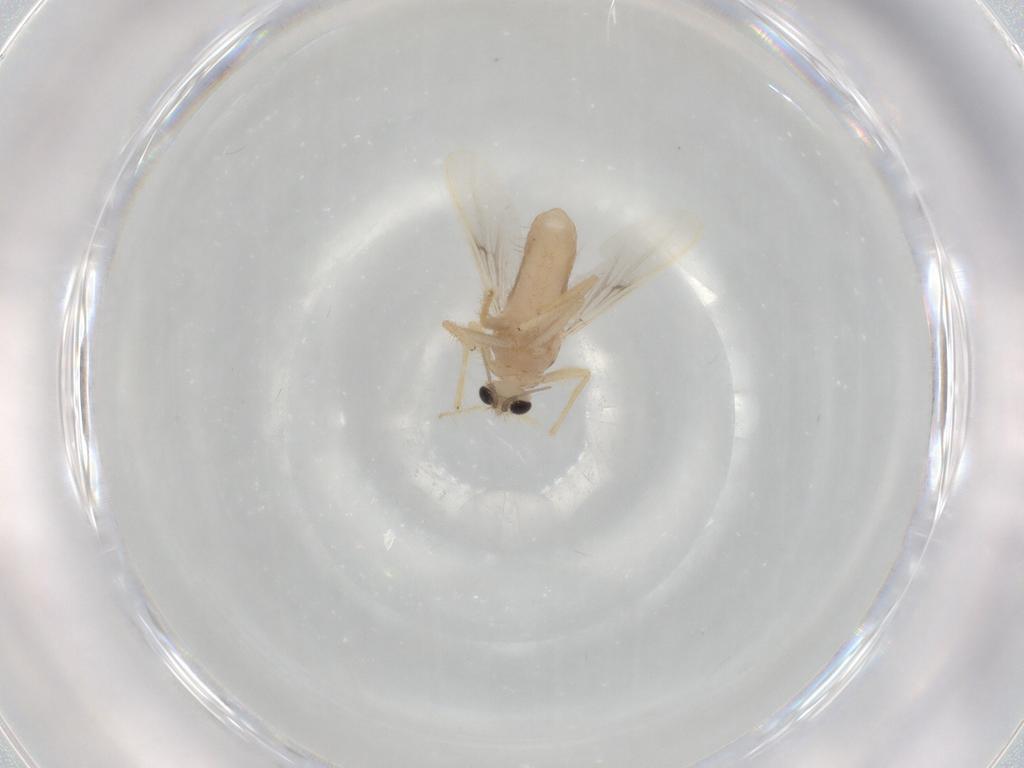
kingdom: Animalia
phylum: Arthropoda
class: Insecta
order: Diptera
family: Chironomidae
